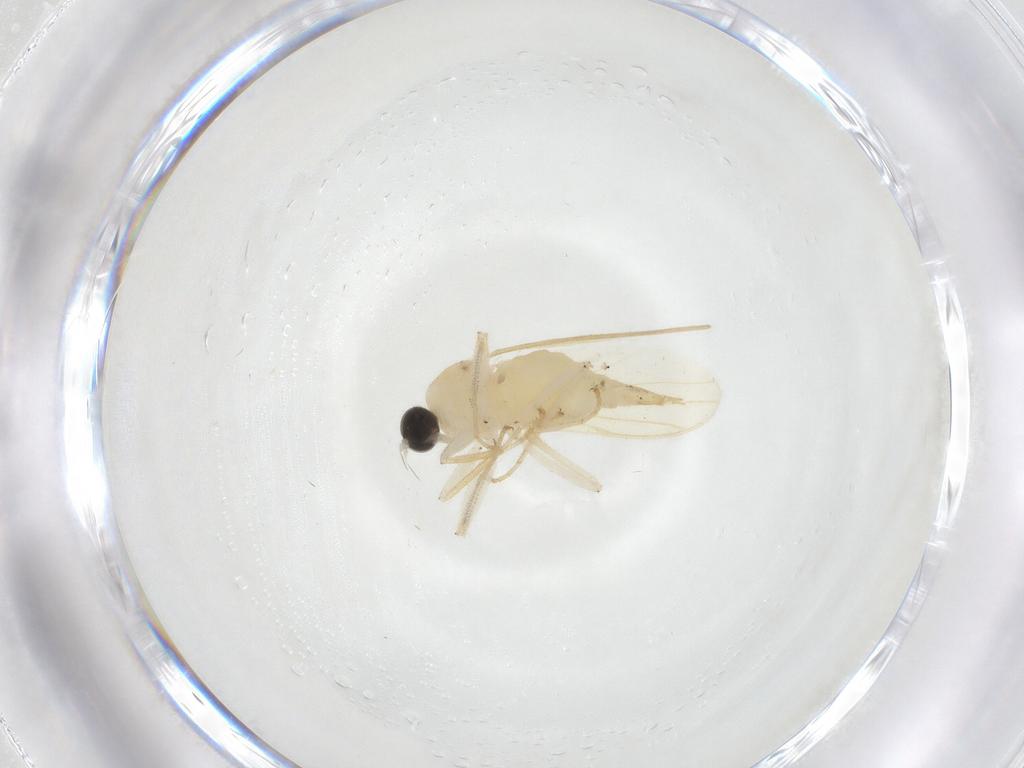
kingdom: Animalia
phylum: Arthropoda
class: Insecta
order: Diptera
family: Hybotidae
